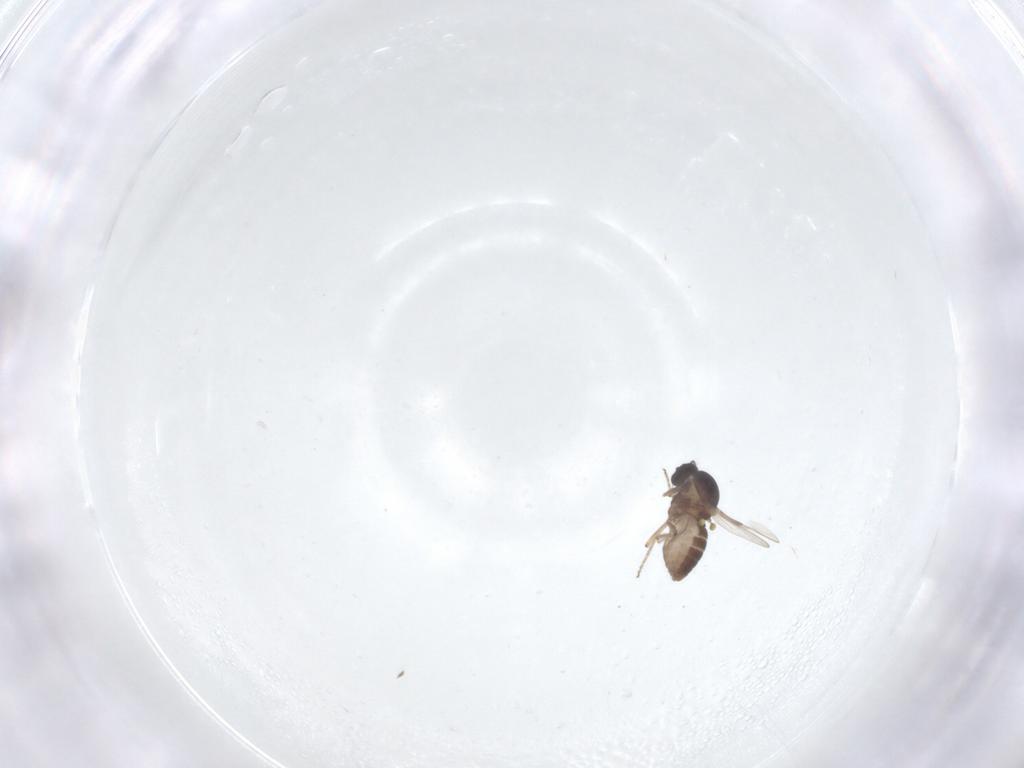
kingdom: Animalia
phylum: Arthropoda
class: Insecta
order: Diptera
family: Ceratopogonidae
